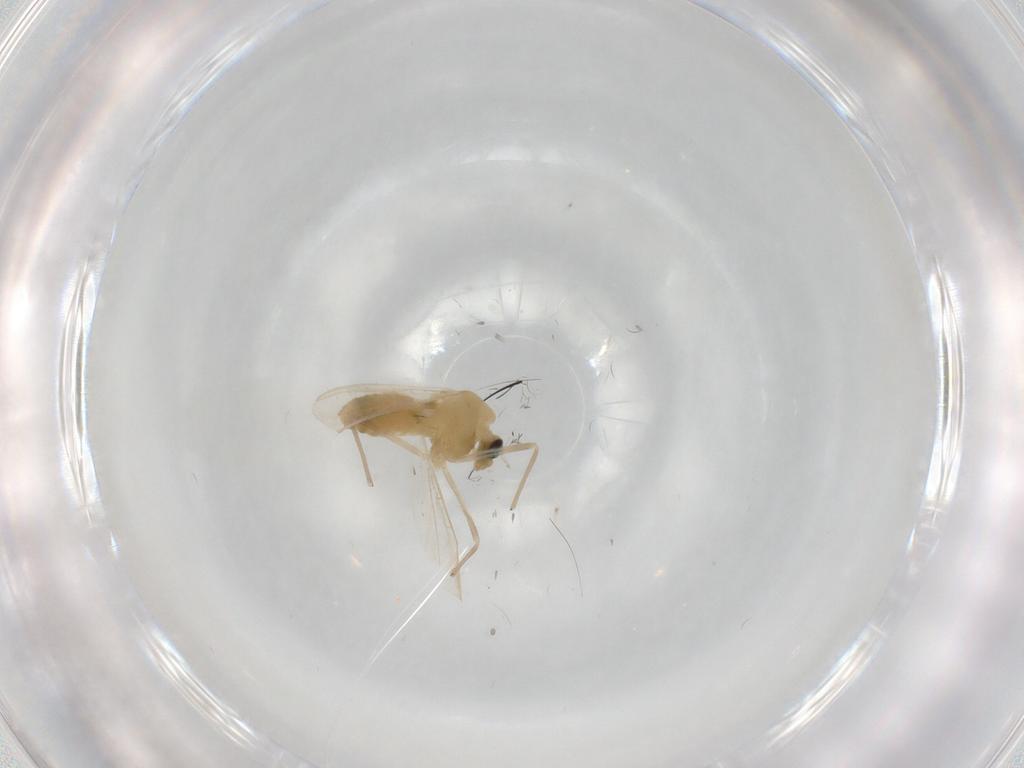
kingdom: Animalia
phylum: Arthropoda
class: Insecta
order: Diptera
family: Chironomidae
